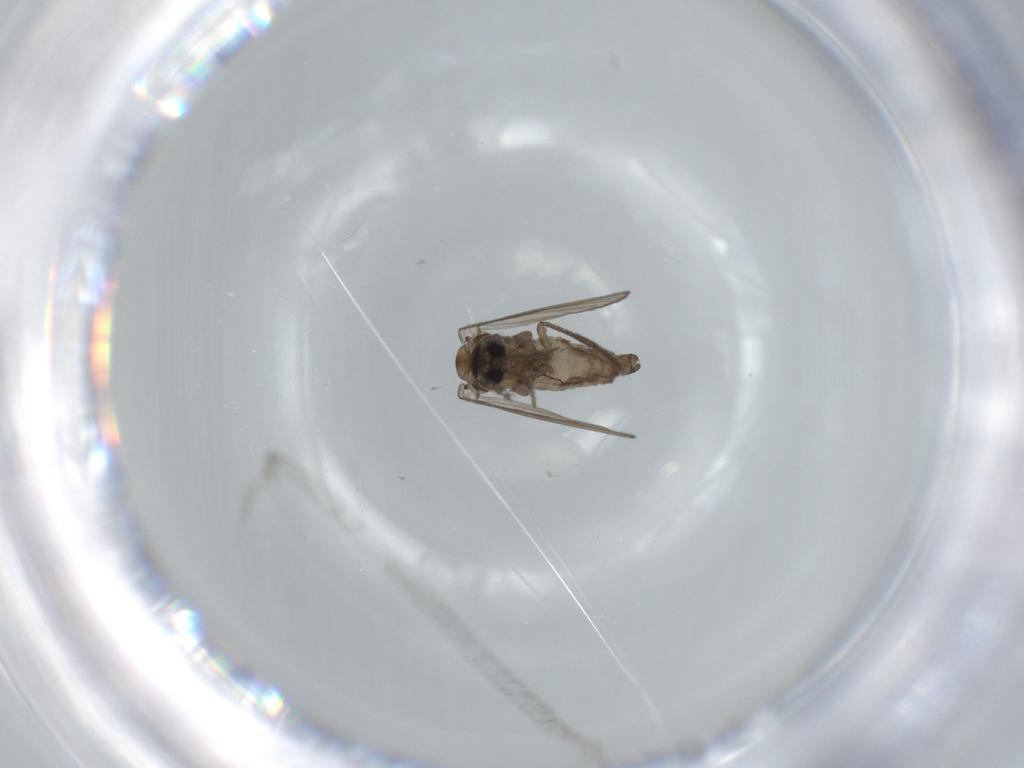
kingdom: Animalia
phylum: Arthropoda
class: Insecta
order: Diptera
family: Psychodidae
